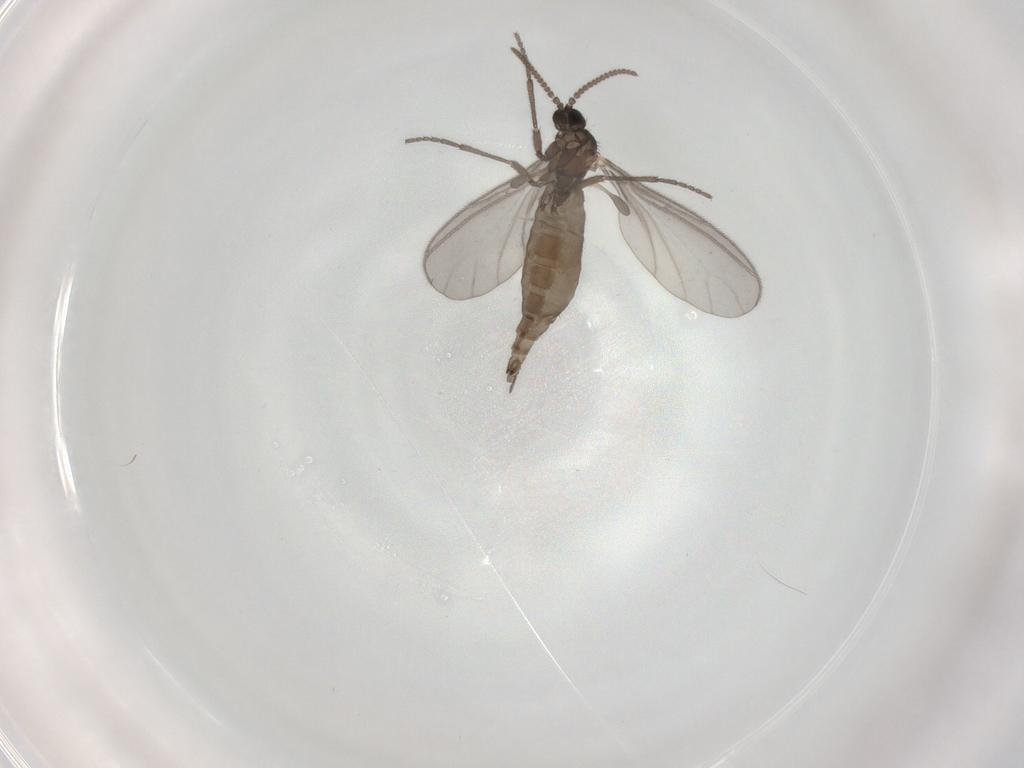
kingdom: Animalia
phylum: Arthropoda
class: Insecta
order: Diptera
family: Sciaridae
